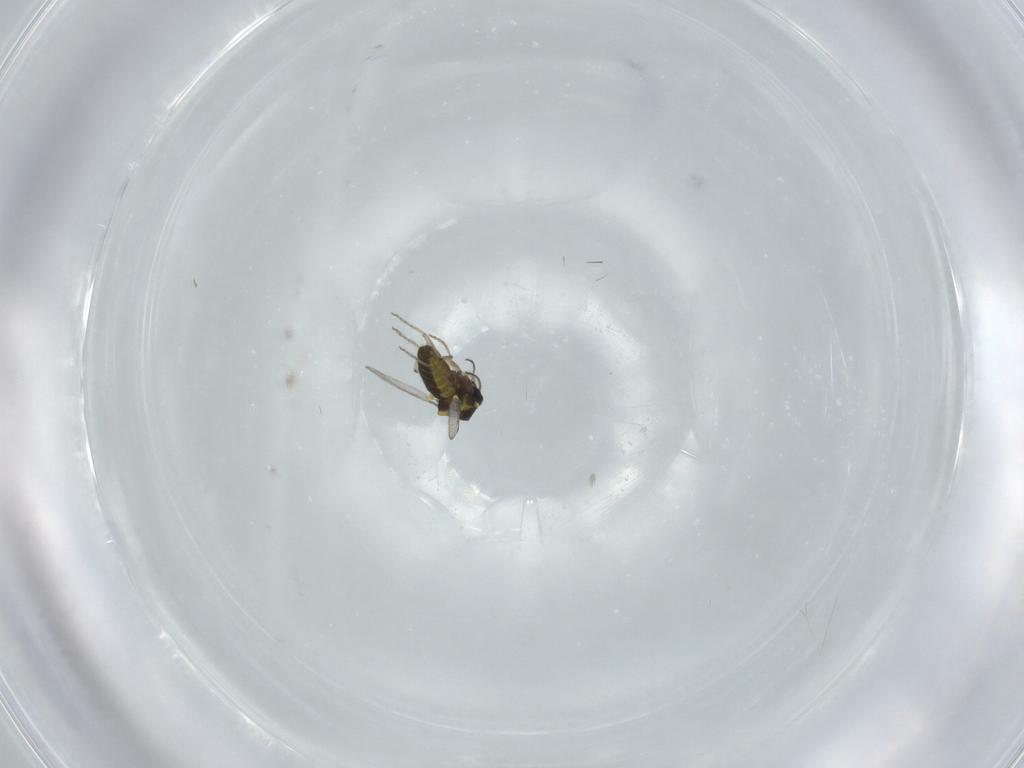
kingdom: Animalia
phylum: Arthropoda
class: Insecta
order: Diptera
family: Ceratopogonidae
